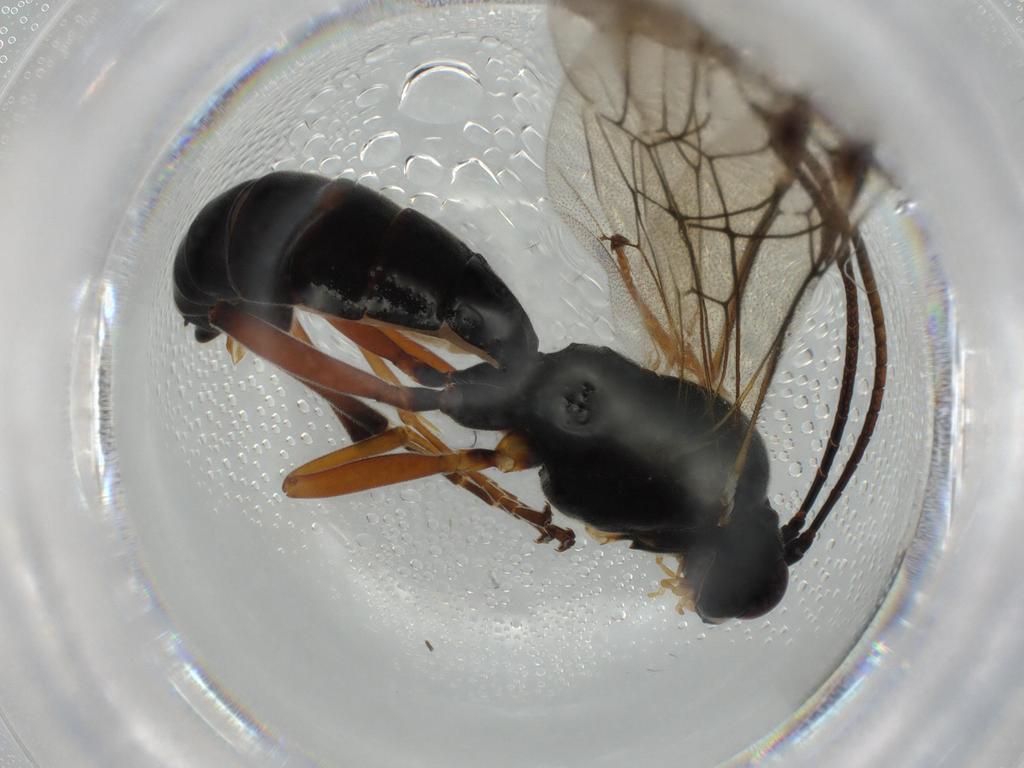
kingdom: Animalia
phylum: Arthropoda
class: Insecta
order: Hymenoptera
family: Ichneumonidae
